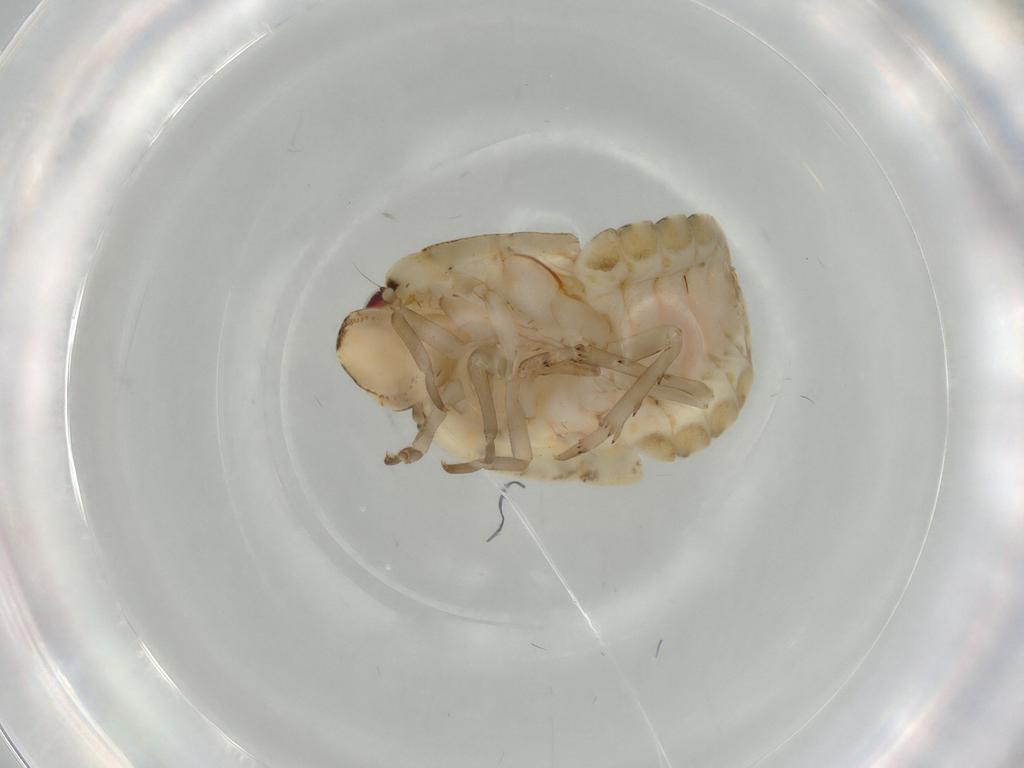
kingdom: Animalia
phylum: Arthropoda
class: Insecta
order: Hemiptera
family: Flatidae
